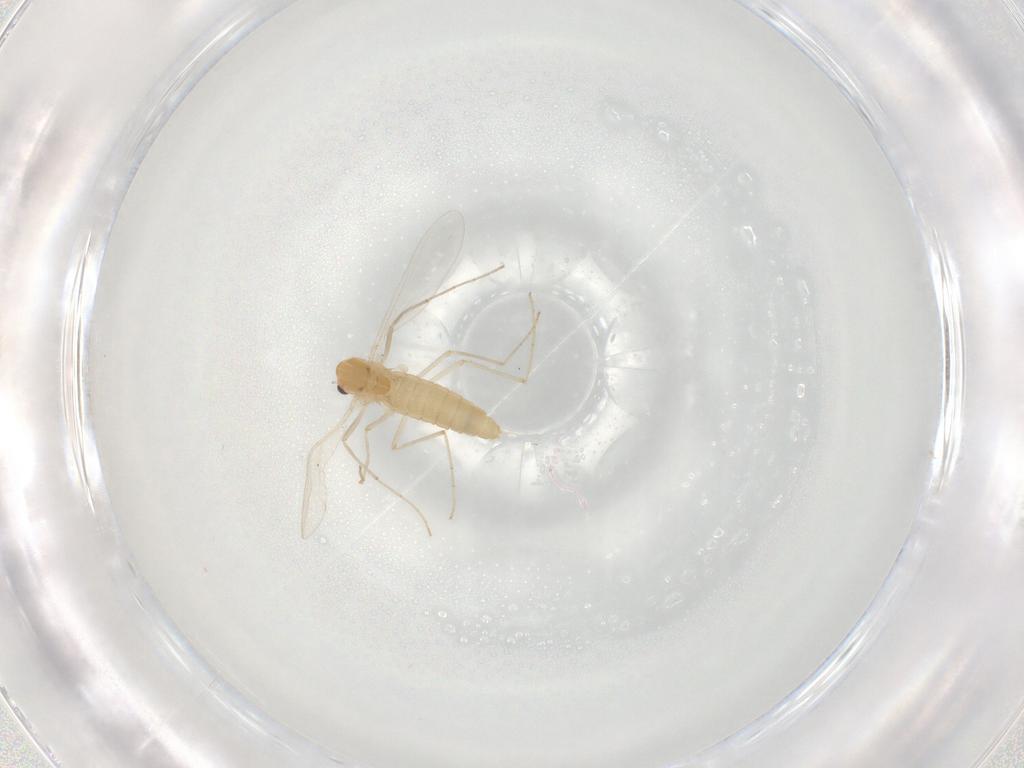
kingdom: Animalia
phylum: Arthropoda
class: Insecta
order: Diptera
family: Chironomidae
